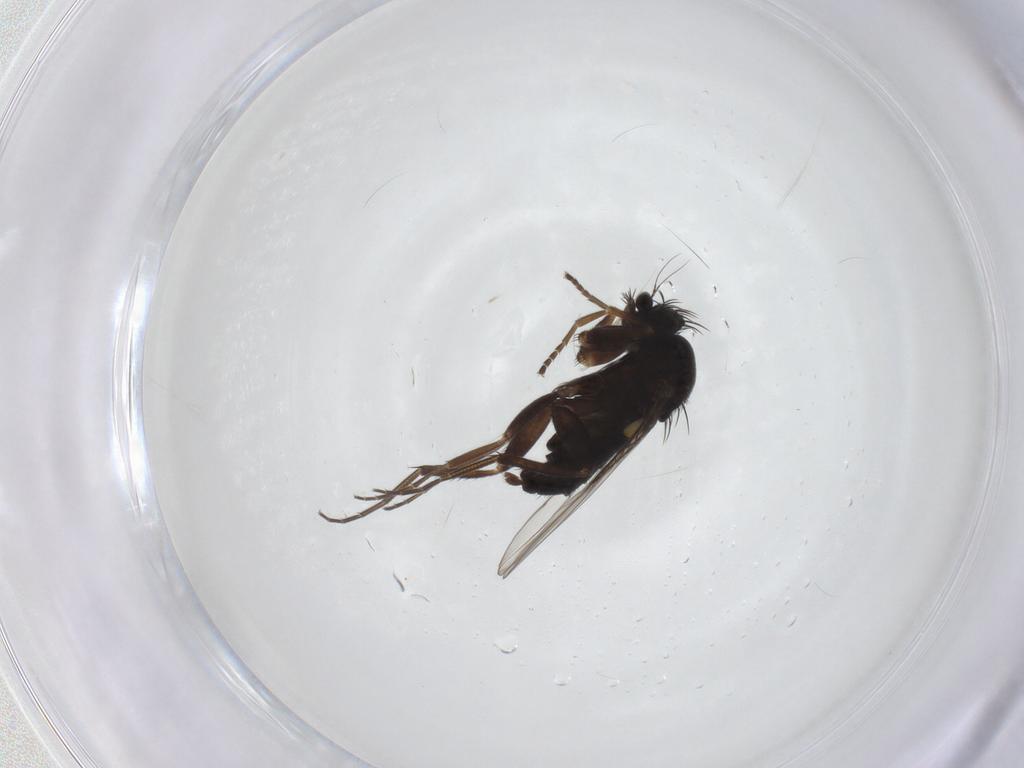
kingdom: Animalia
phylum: Arthropoda
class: Insecta
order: Diptera
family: Phoridae
